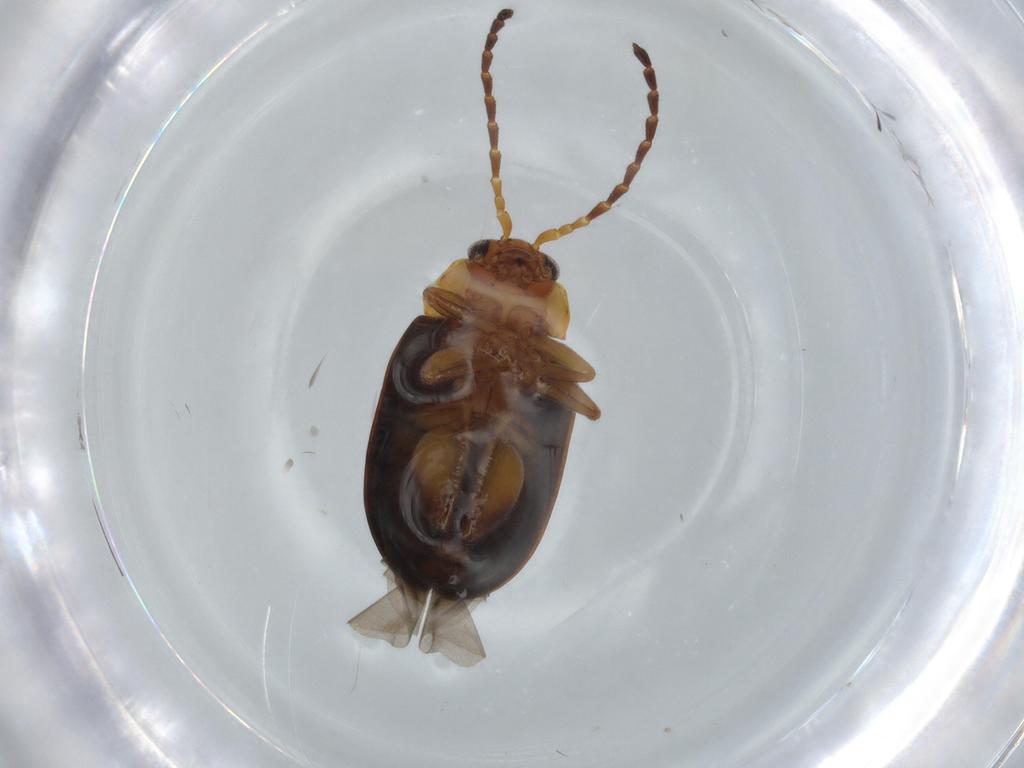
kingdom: Animalia
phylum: Arthropoda
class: Insecta
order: Coleoptera
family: Chrysomelidae
